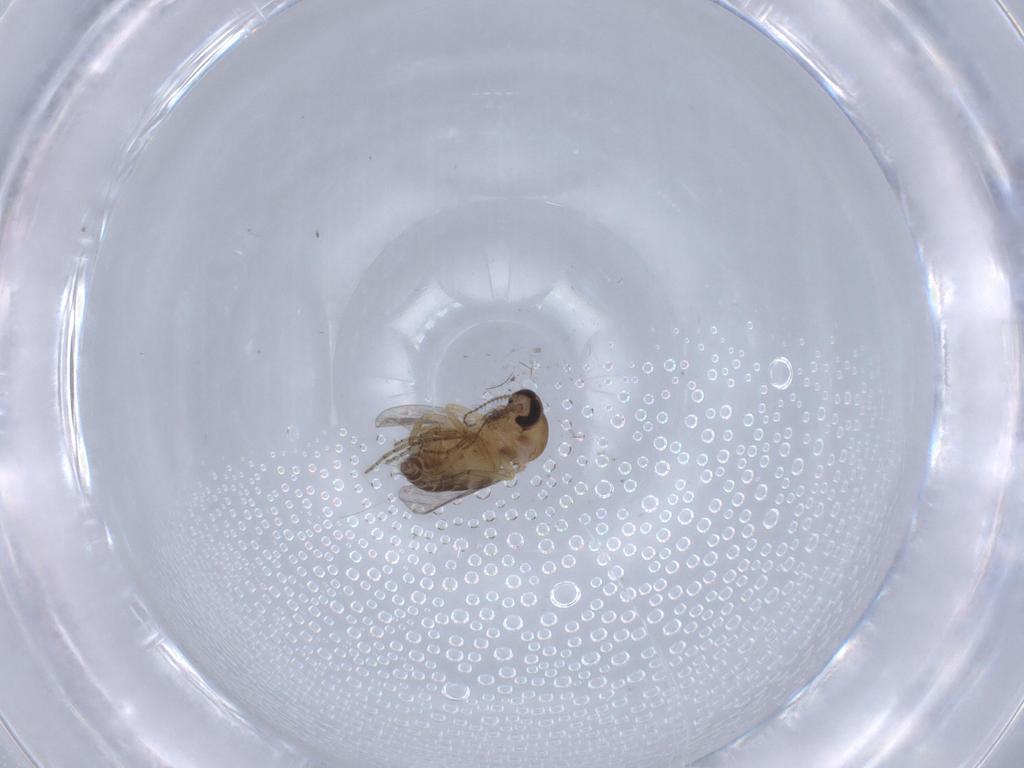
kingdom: Animalia
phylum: Arthropoda
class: Insecta
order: Diptera
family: Ceratopogonidae
